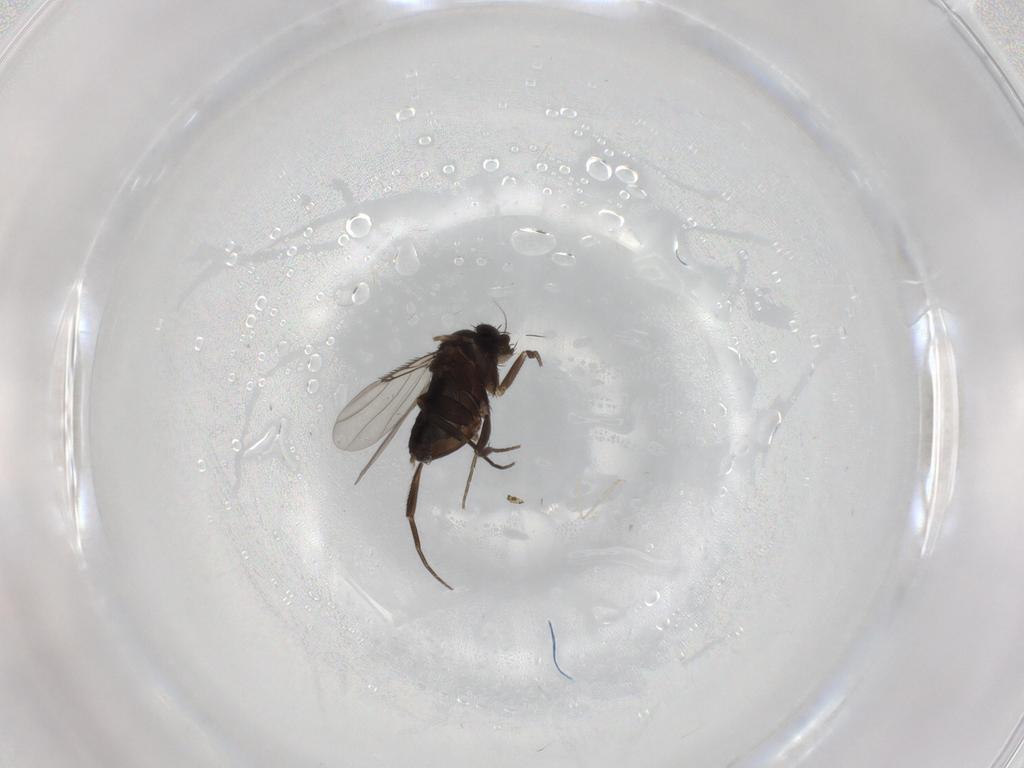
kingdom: Animalia
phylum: Arthropoda
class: Insecta
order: Diptera
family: Phoridae
